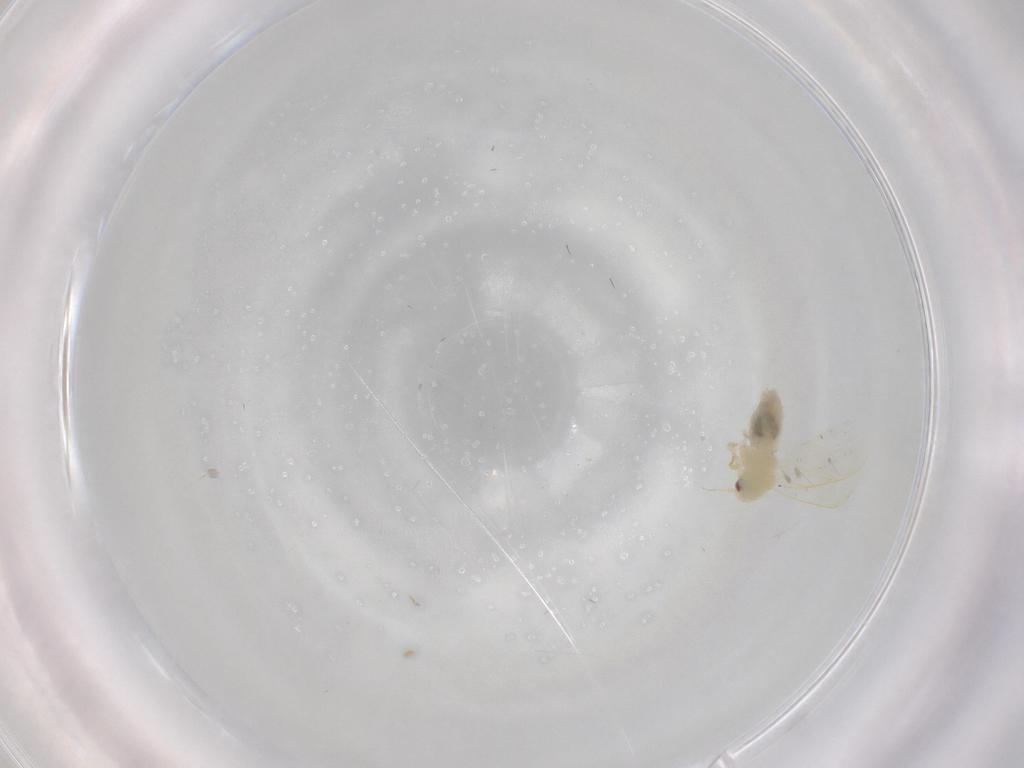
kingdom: Animalia
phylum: Arthropoda
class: Insecta
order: Hemiptera
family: Aleyrodidae
